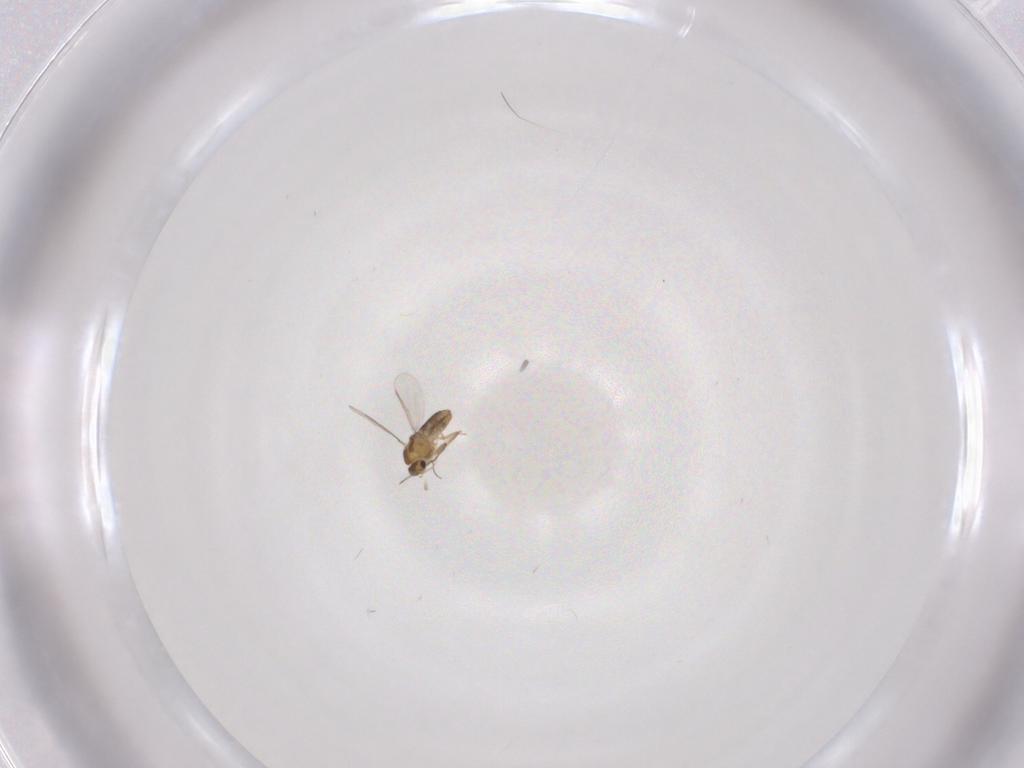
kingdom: Animalia
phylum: Arthropoda
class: Insecta
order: Diptera
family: Chironomidae
